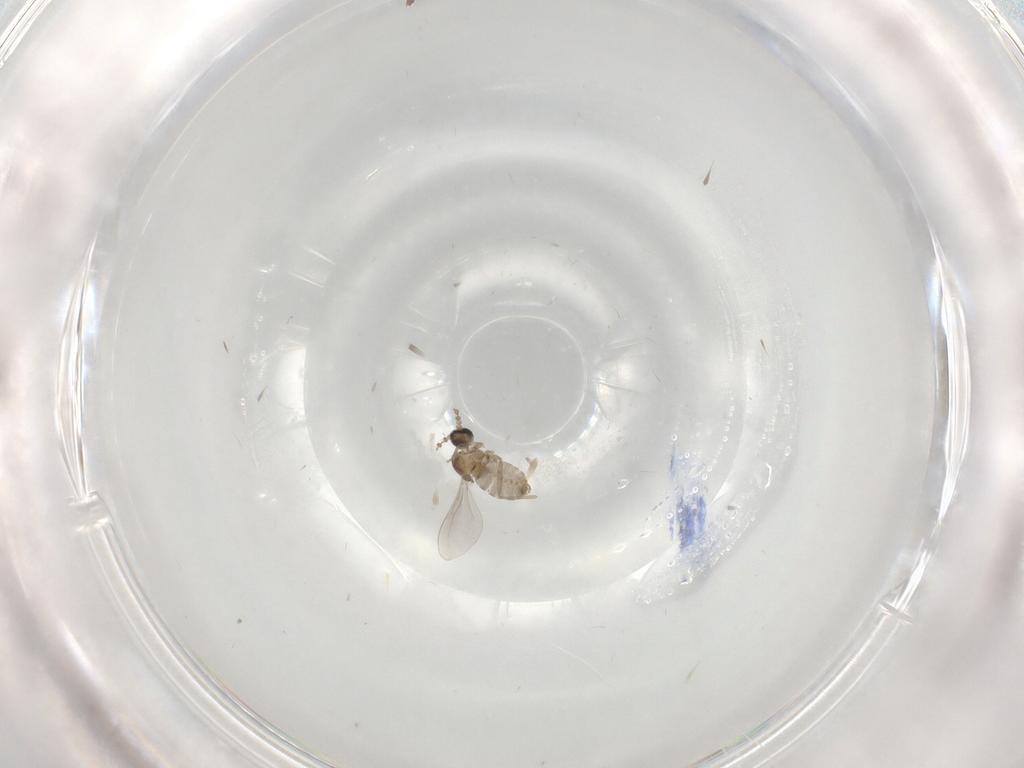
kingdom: Animalia
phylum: Arthropoda
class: Insecta
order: Diptera
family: Cecidomyiidae
